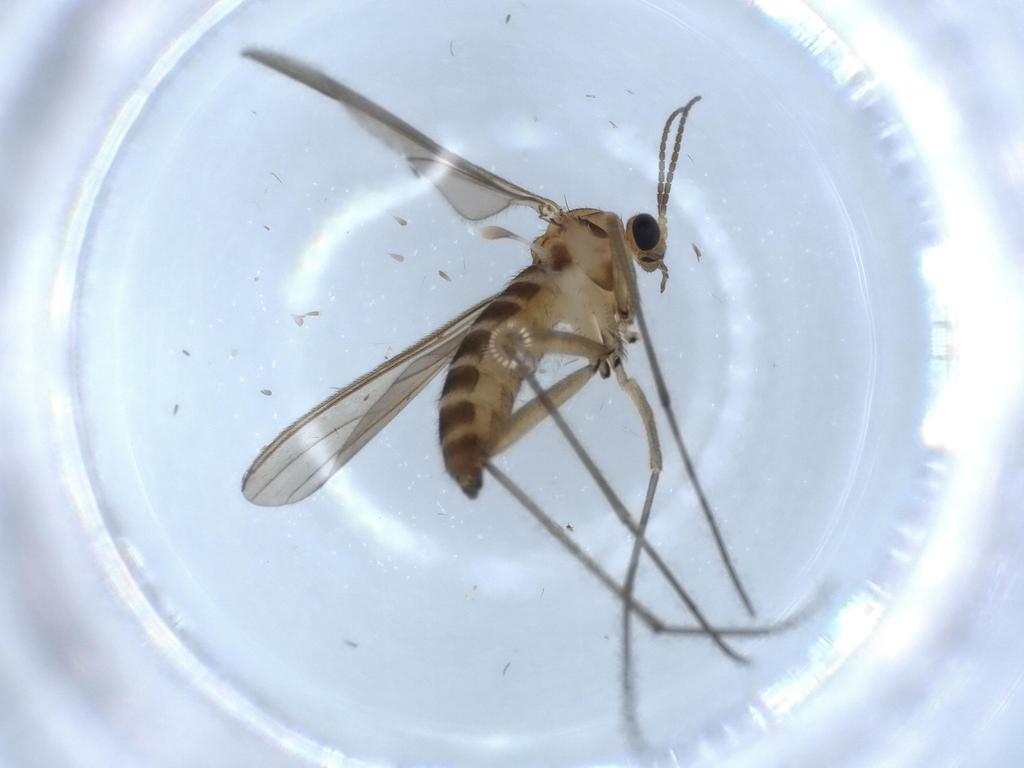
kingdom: Animalia
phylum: Arthropoda
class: Insecta
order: Diptera
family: Sciaridae
